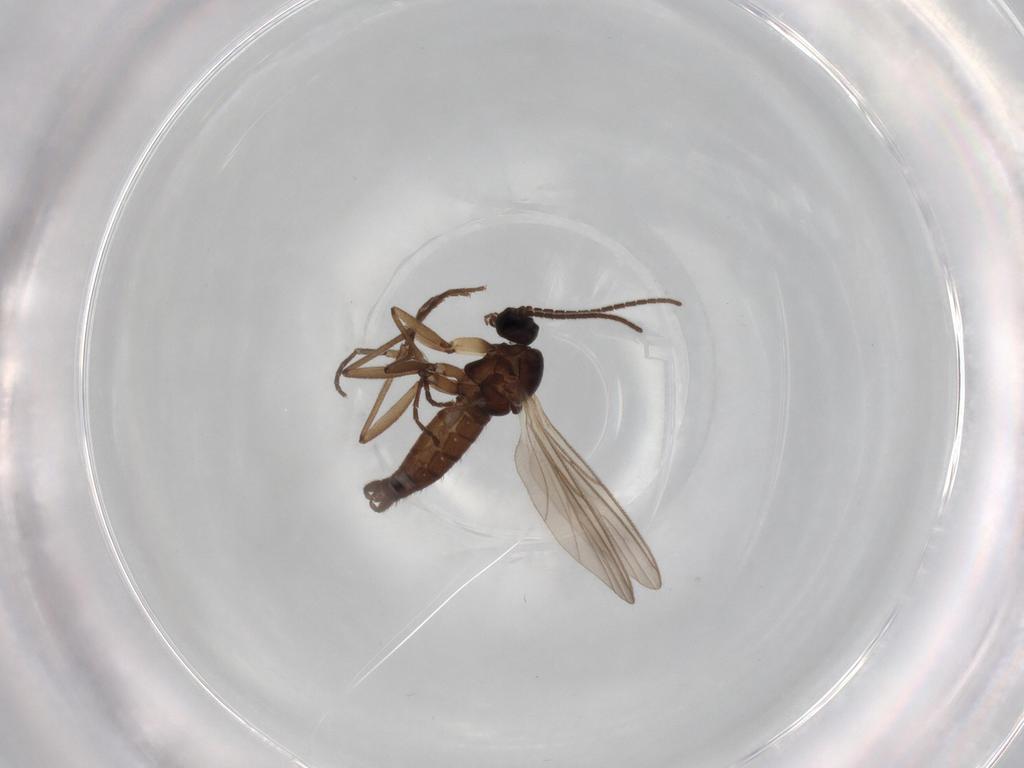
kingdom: Animalia
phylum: Arthropoda
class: Insecta
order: Diptera
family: Sciaridae
